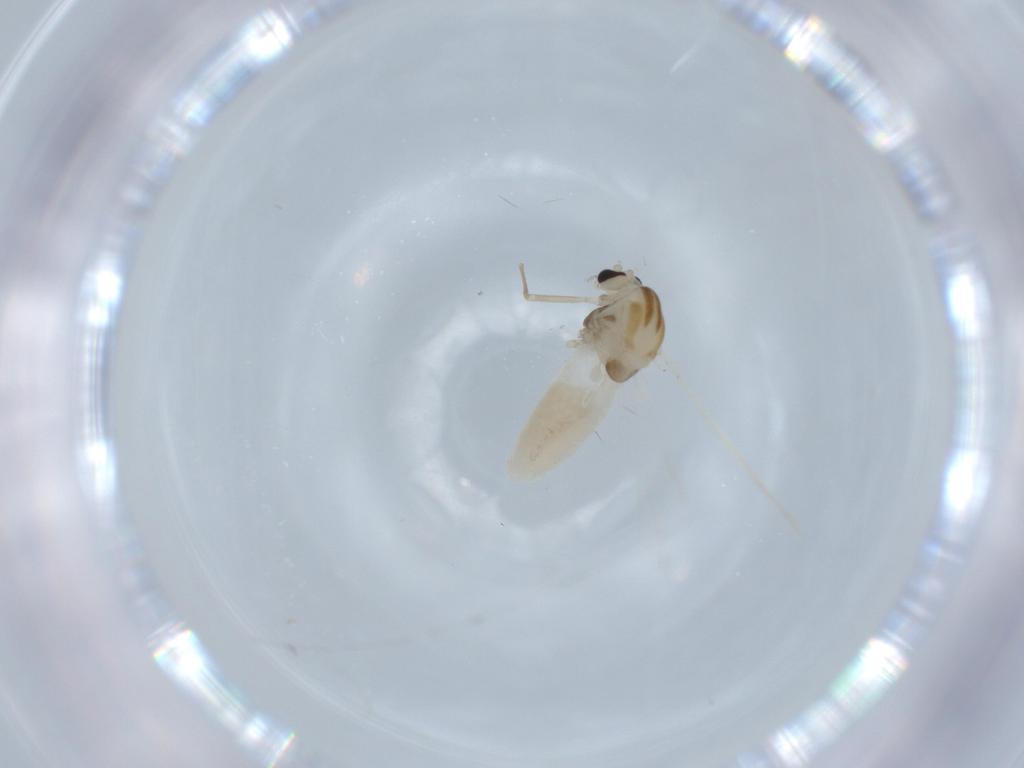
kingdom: Animalia
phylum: Arthropoda
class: Insecta
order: Diptera
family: Chironomidae
